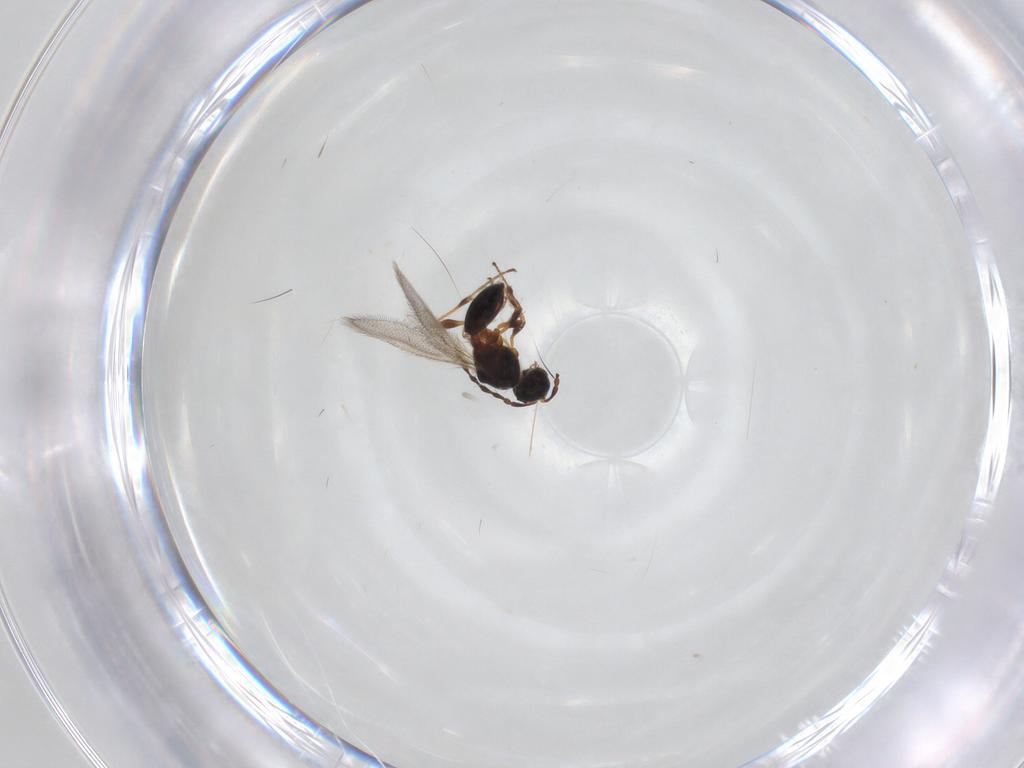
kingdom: Animalia
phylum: Arthropoda
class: Insecta
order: Hymenoptera
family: Diapriidae
